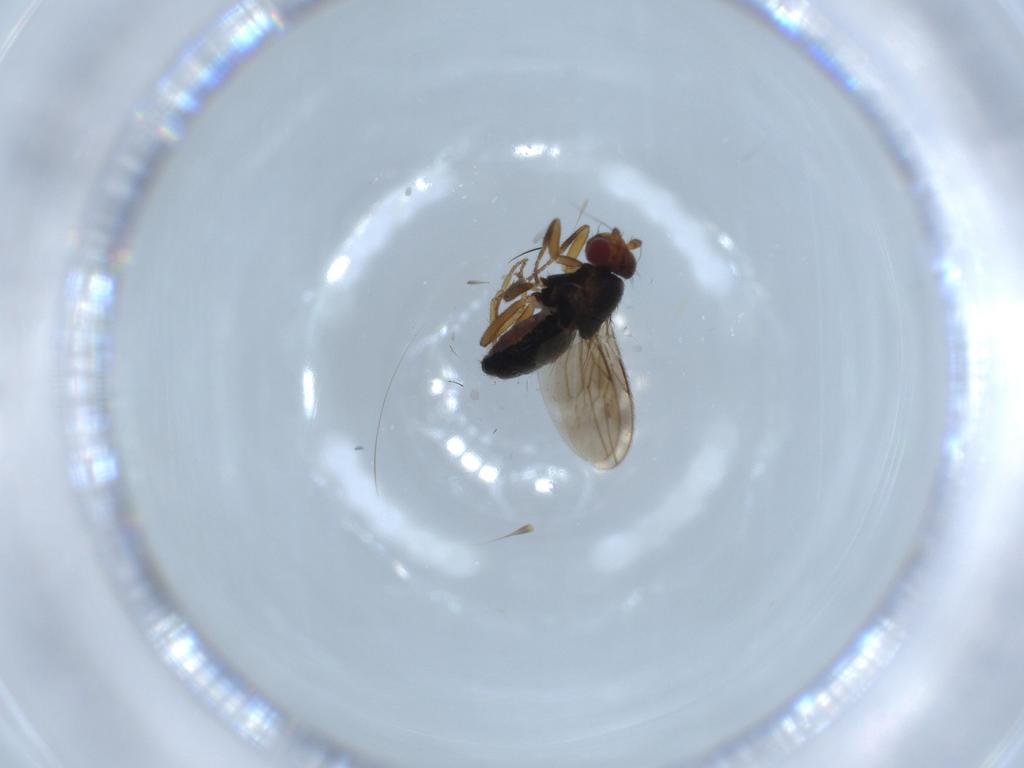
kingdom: Animalia
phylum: Arthropoda
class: Insecta
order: Diptera
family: Sphaeroceridae
